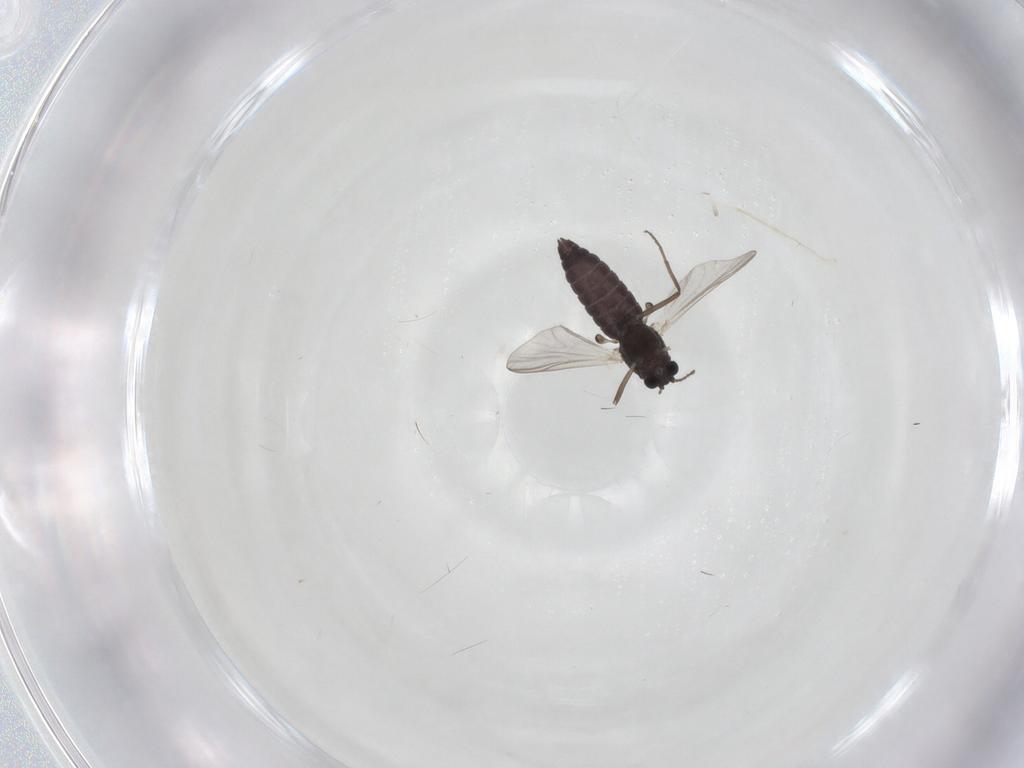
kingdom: Animalia
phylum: Arthropoda
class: Insecta
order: Diptera
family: Chironomidae
